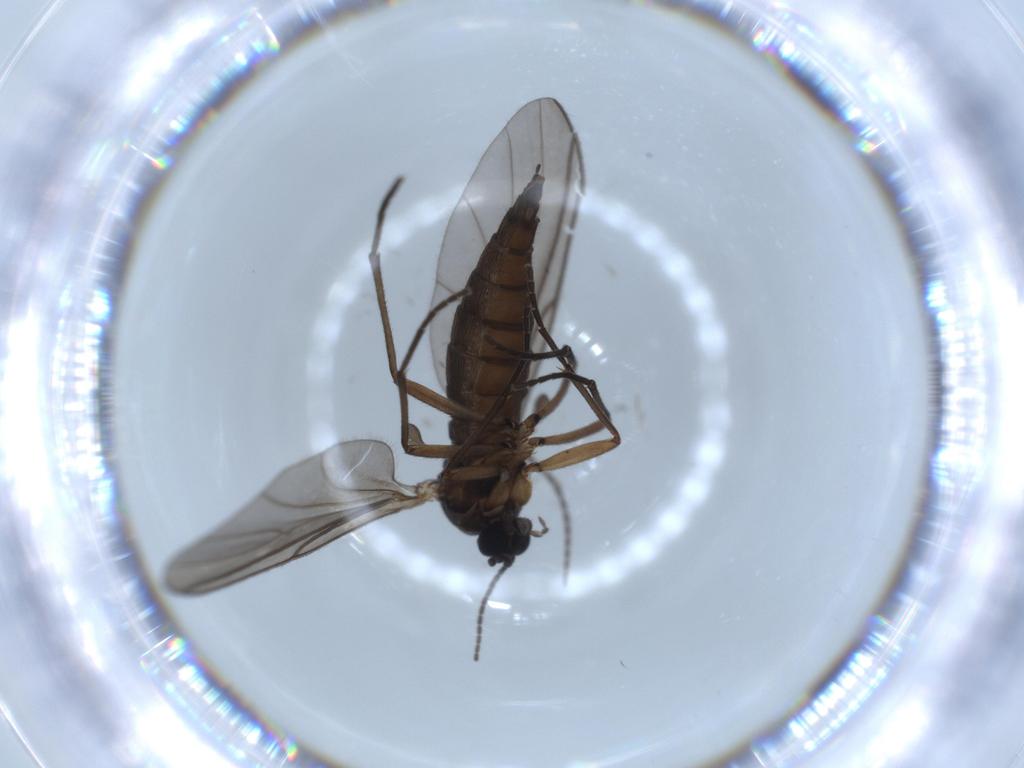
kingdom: Animalia
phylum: Arthropoda
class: Insecta
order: Diptera
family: Sciaridae
